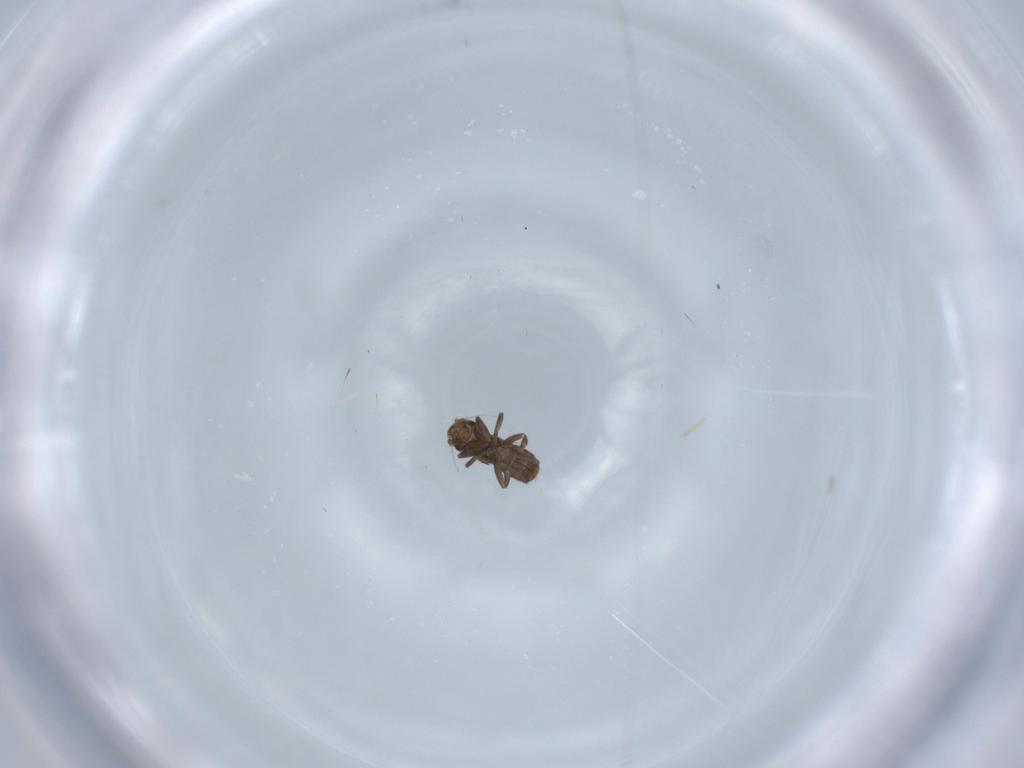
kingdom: Animalia
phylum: Arthropoda
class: Insecta
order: Diptera
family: Phoridae
